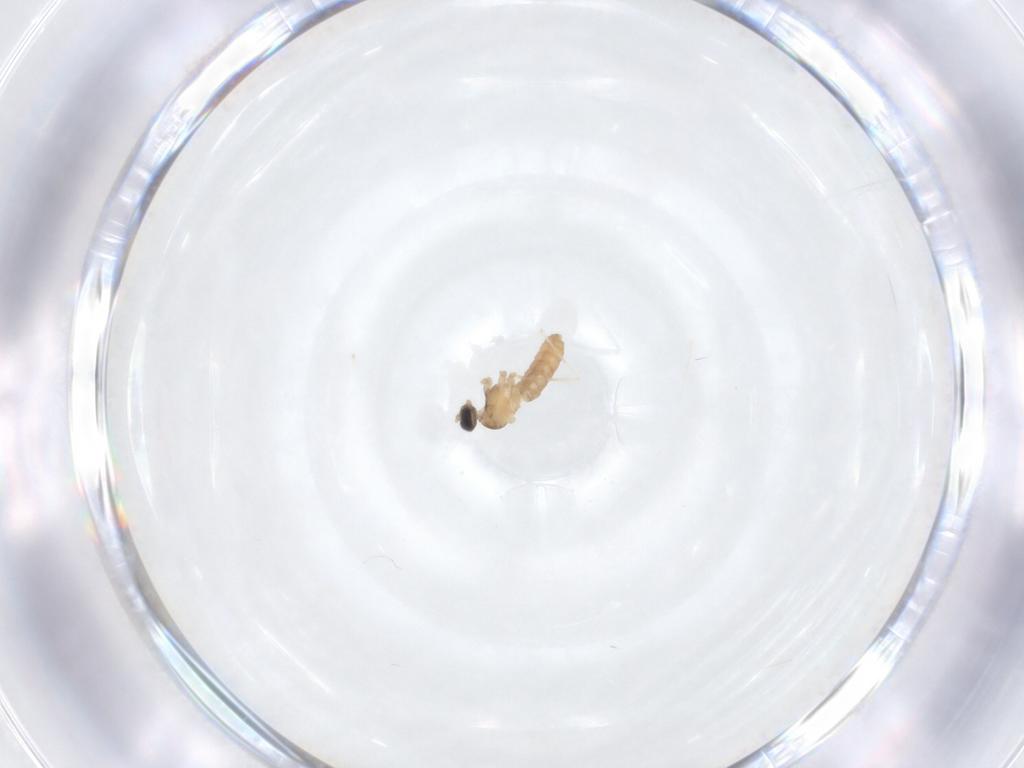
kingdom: Animalia
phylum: Arthropoda
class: Insecta
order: Diptera
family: Cecidomyiidae
